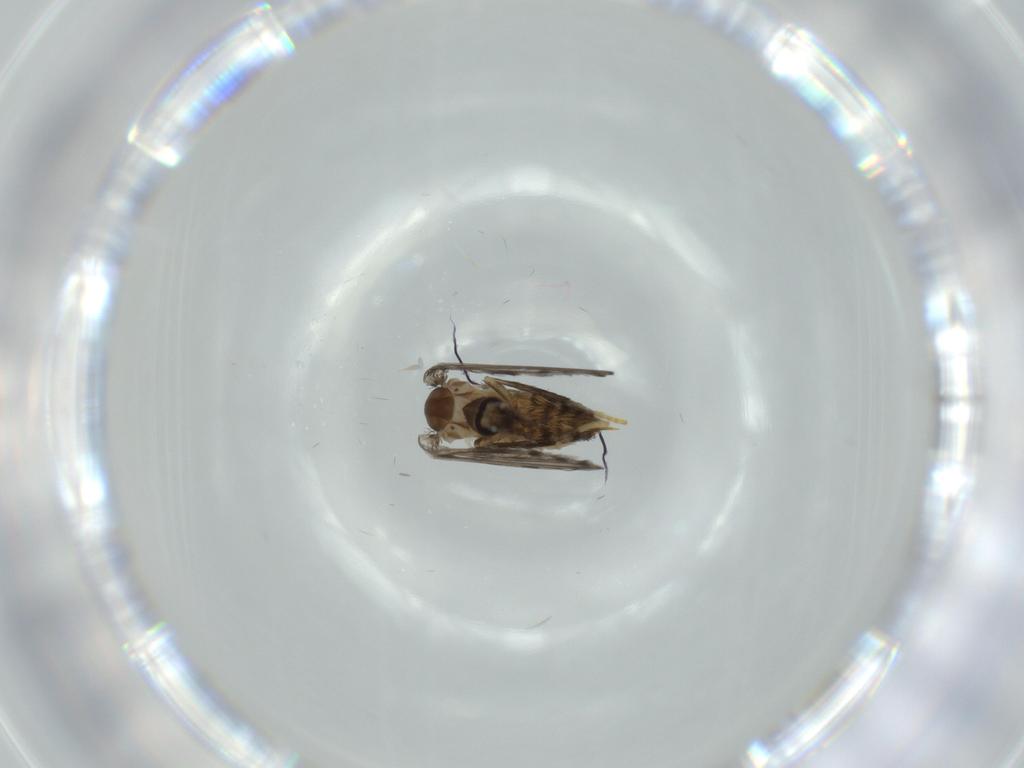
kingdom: Animalia
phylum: Arthropoda
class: Insecta
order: Diptera
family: Psychodidae
